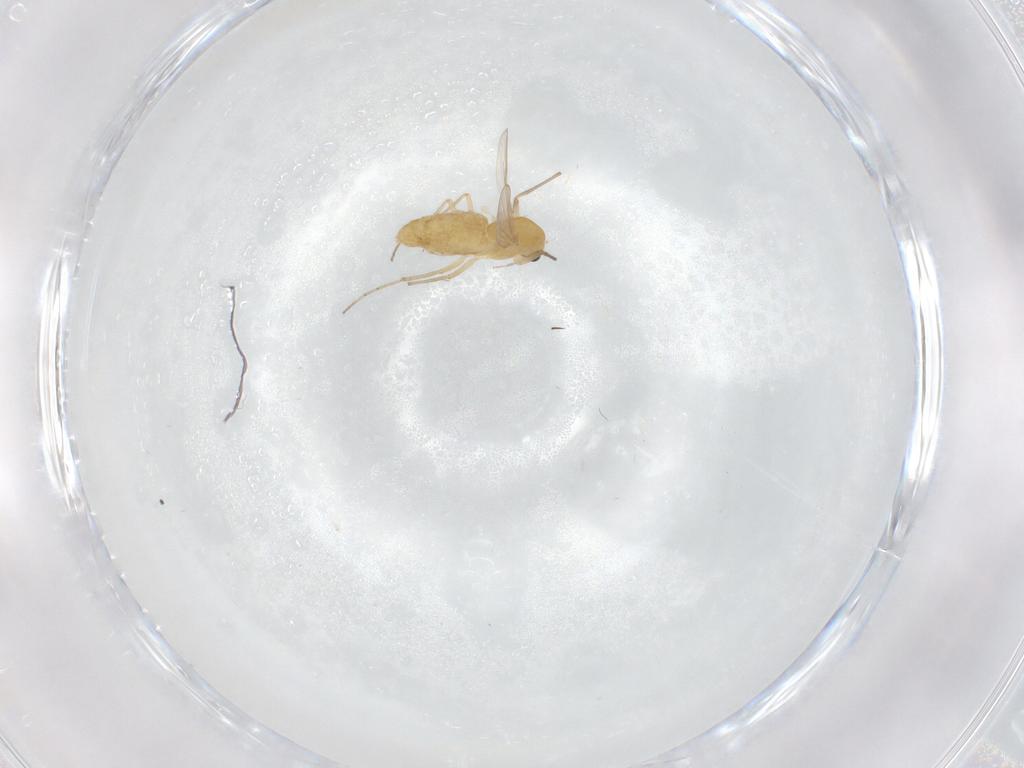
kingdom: Animalia
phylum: Arthropoda
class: Insecta
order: Diptera
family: Chironomidae
